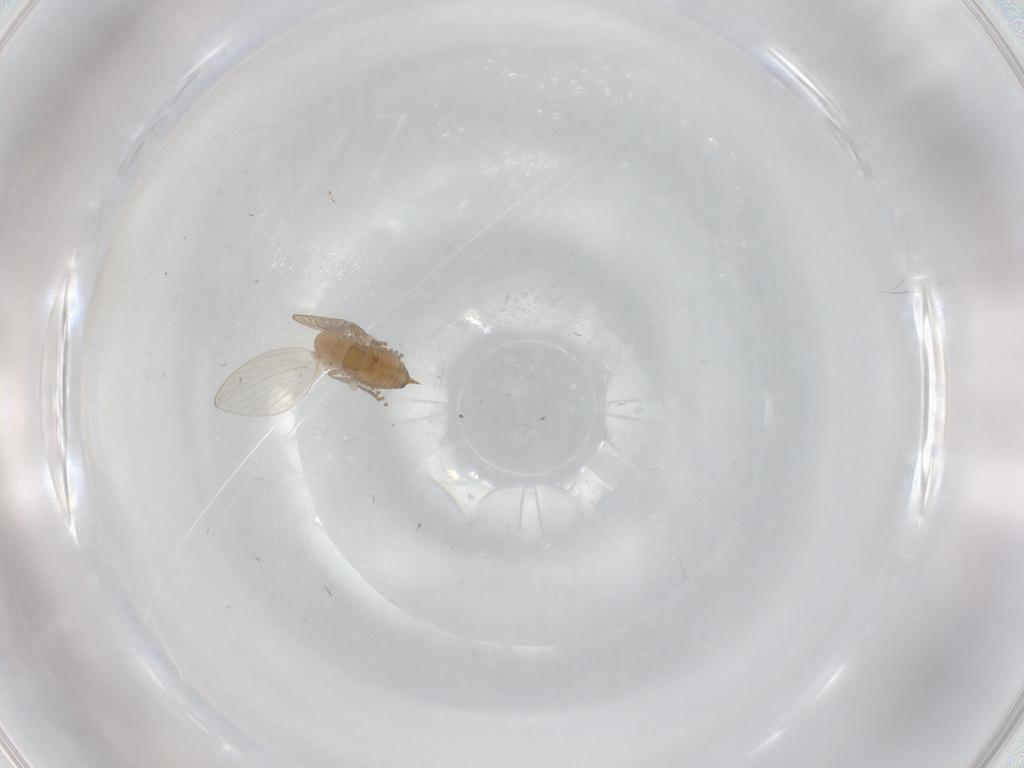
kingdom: Animalia
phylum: Arthropoda
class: Insecta
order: Diptera
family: Psychodidae
